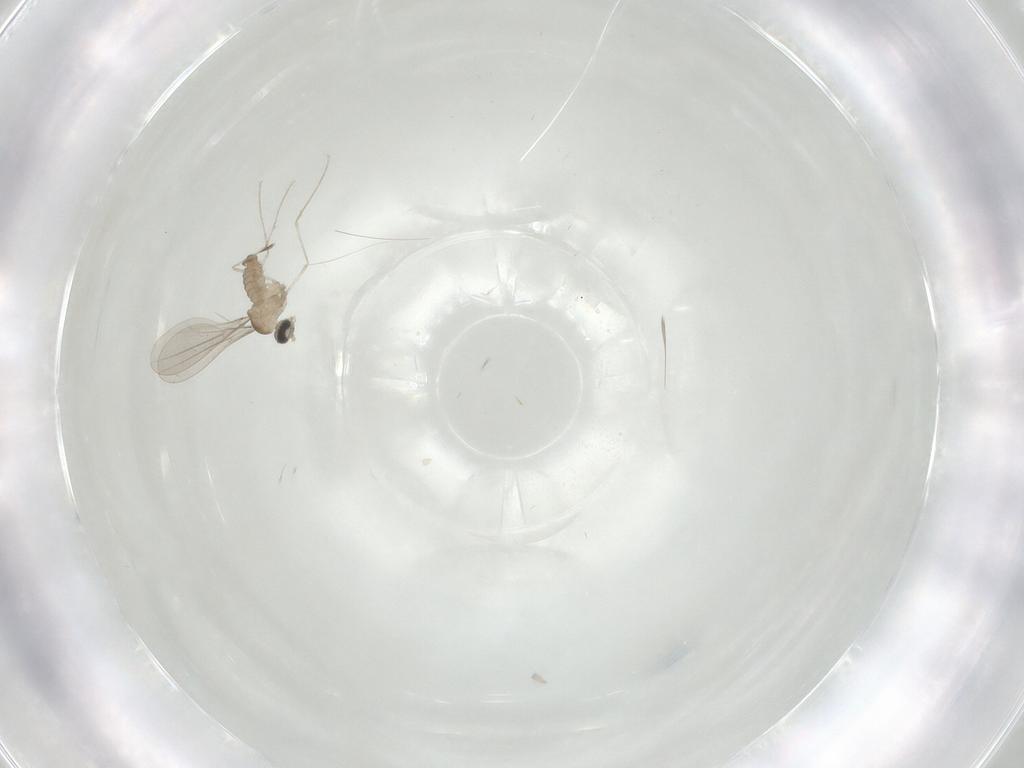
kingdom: Animalia
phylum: Arthropoda
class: Insecta
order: Diptera
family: Cecidomyiidae
